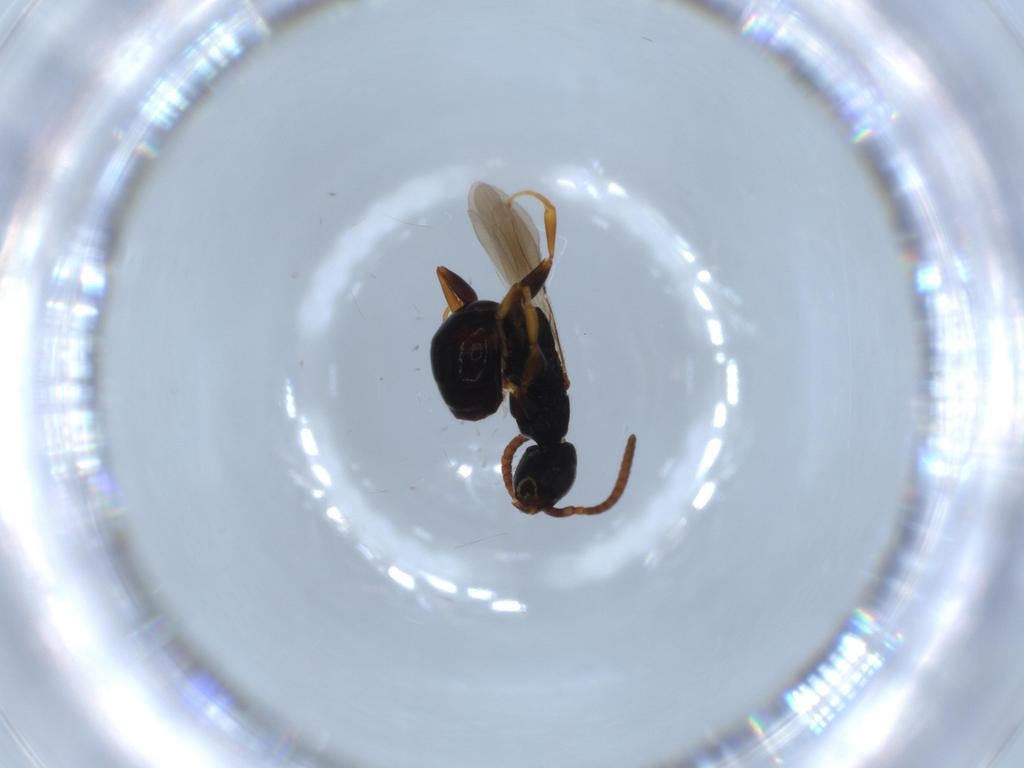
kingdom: Animalia
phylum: Arthropoda
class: Insecta
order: Hymenoptera
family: Bethylidae
